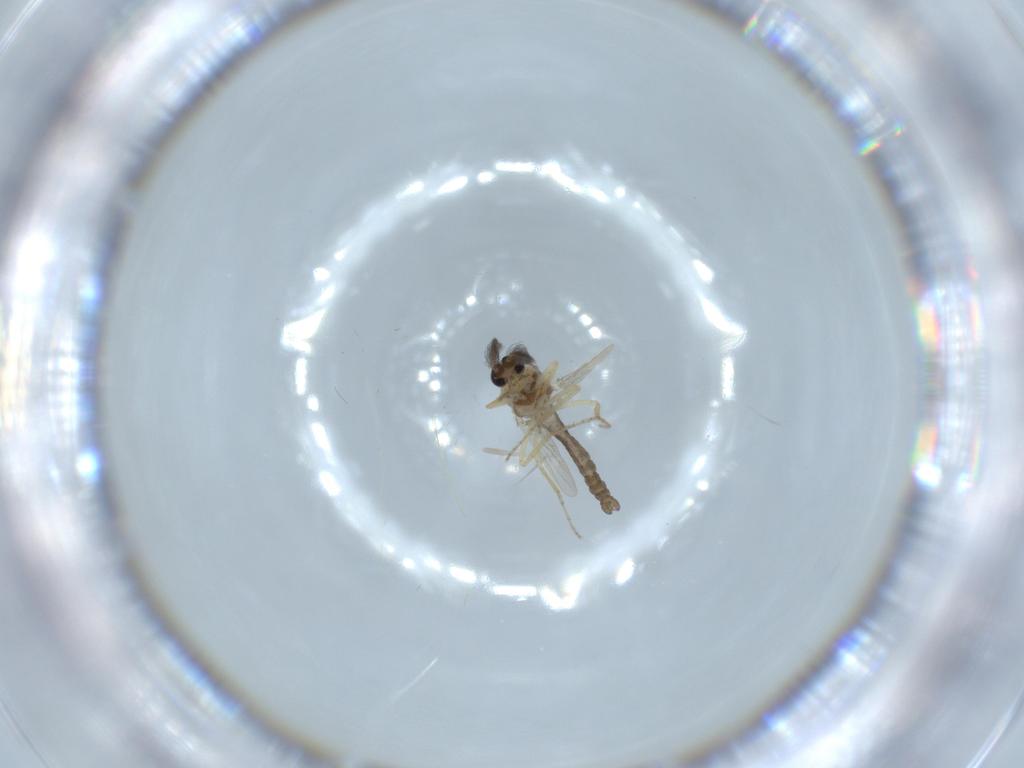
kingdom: Animalia
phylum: Arthropoda
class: Insecta
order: Diptera
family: Ceratopogonidae
